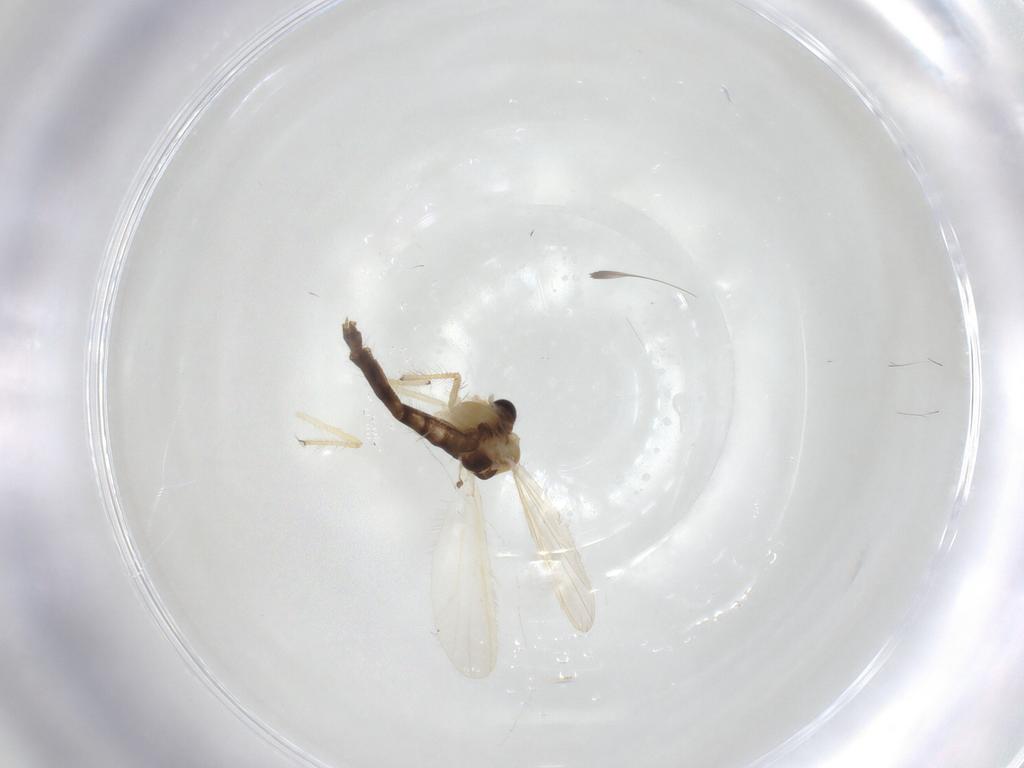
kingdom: Animalia
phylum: Arthropoda
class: Insecta
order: Diptera
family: Chironomidae
